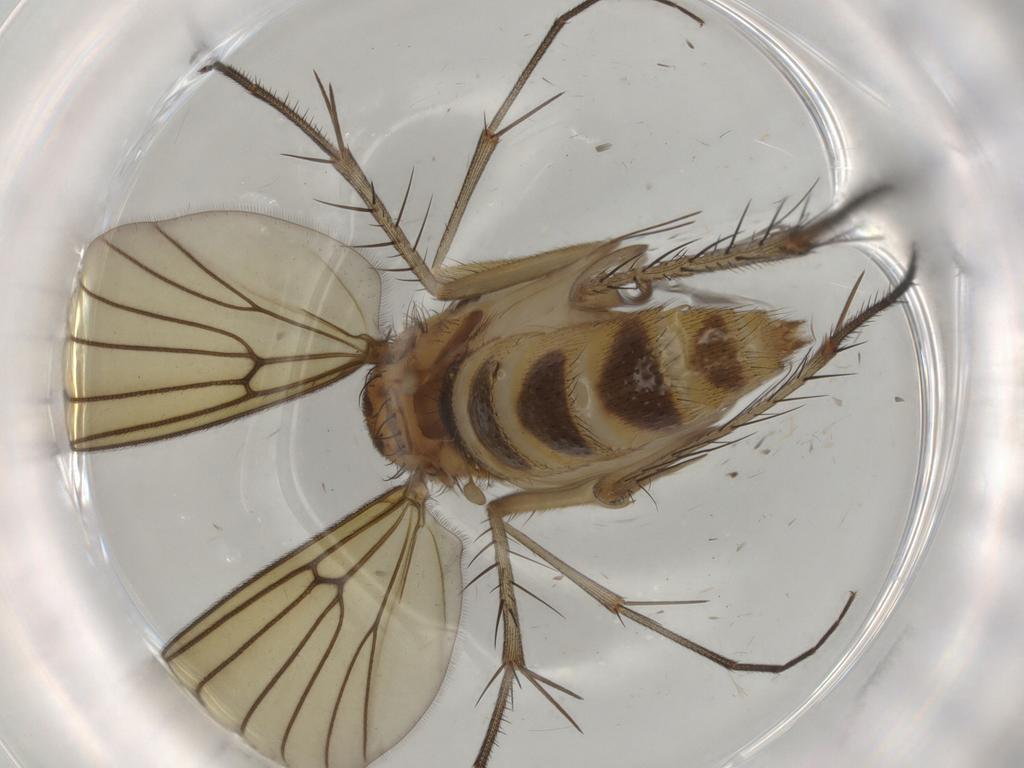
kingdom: Animalia
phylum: Arthropoda
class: Insecta
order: Diptera
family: Mycetophilidae
